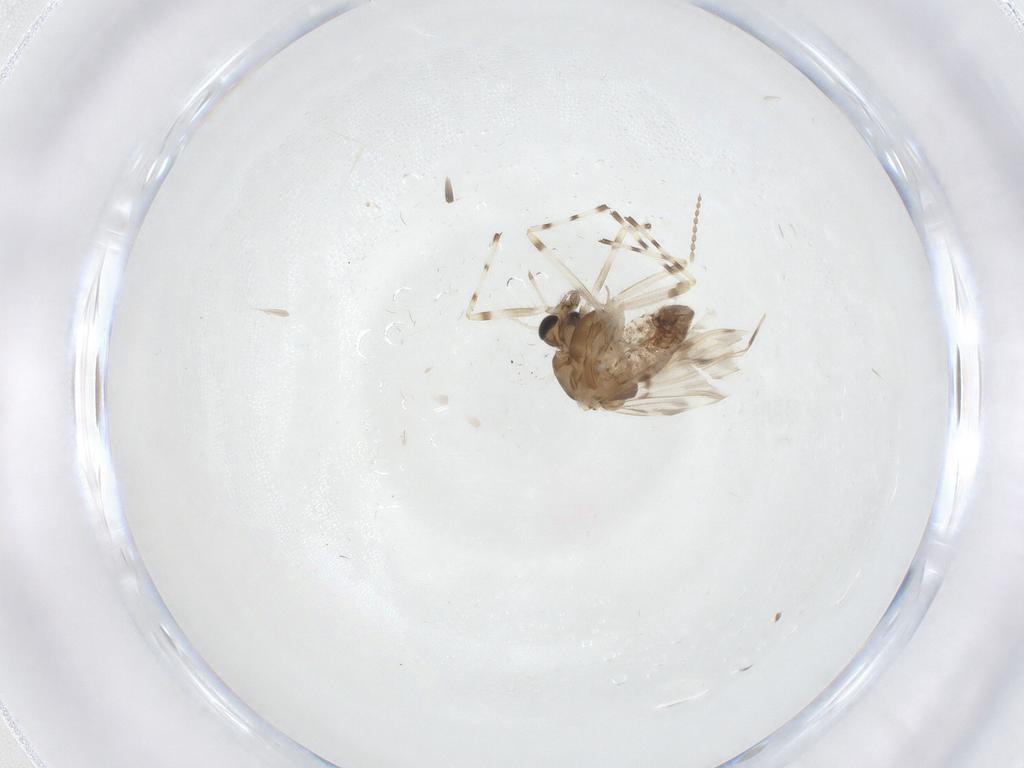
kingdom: Animalia
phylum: Arthropoda
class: Insecta
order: Diptera
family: Chironomidae
